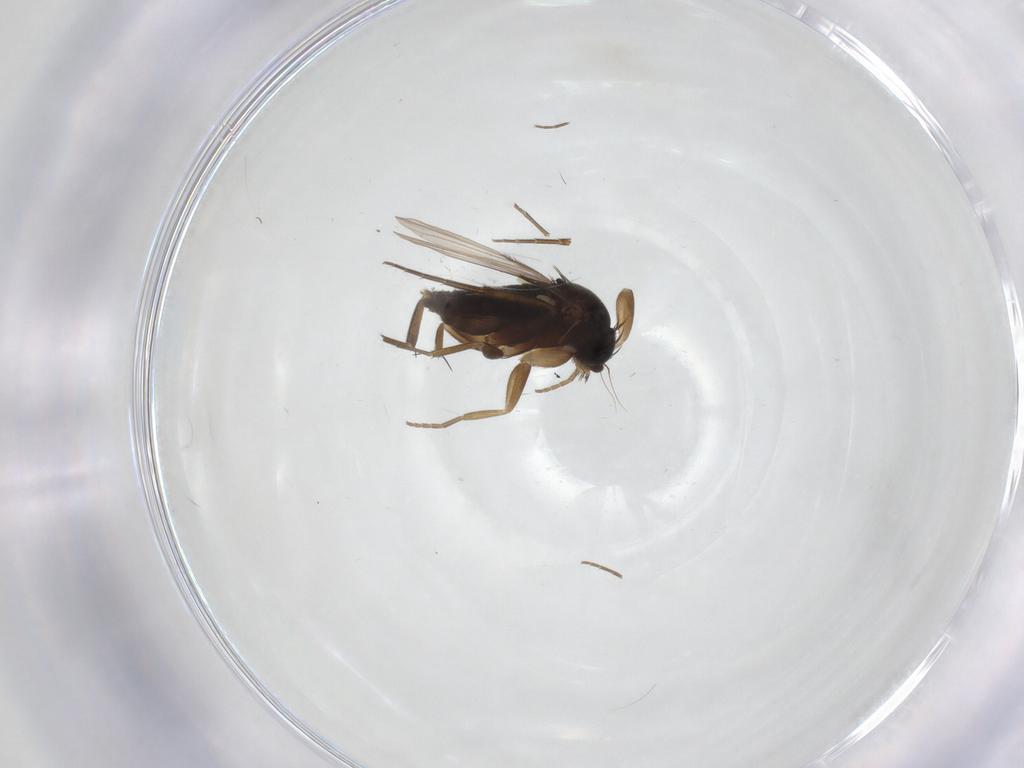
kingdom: Animalia
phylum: Arthropoda
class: Insecta
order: Diptera
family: Phoridae
